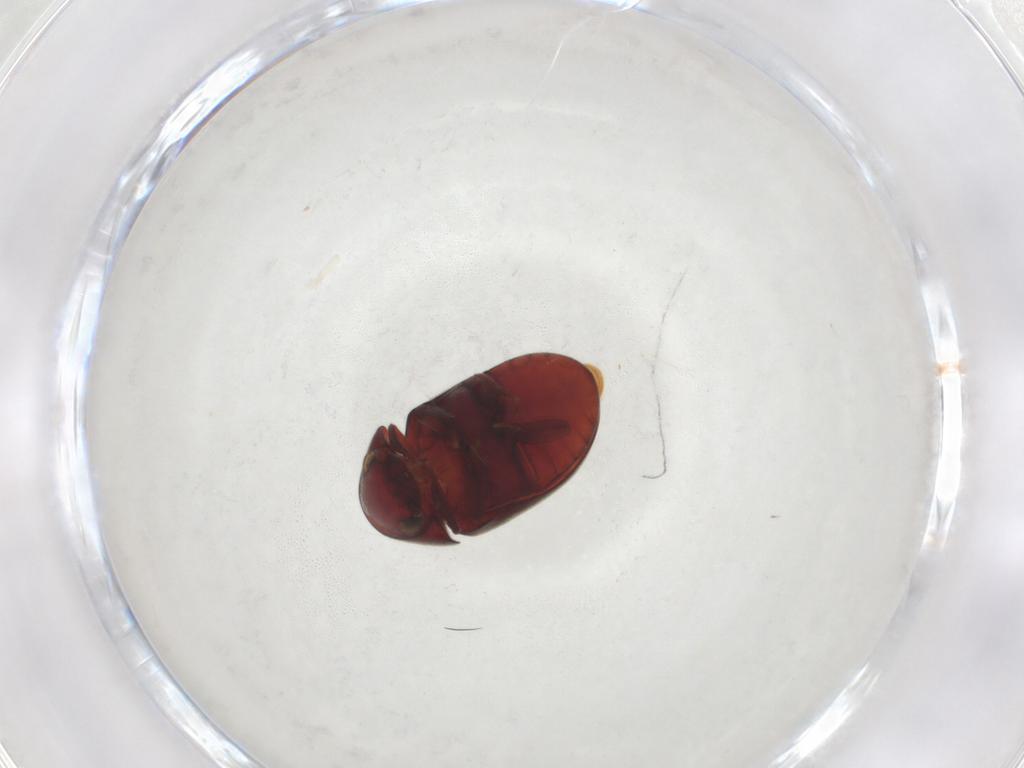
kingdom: Animalia
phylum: Arthropoda
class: Insecta
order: Coleoptera
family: Ptinidae
